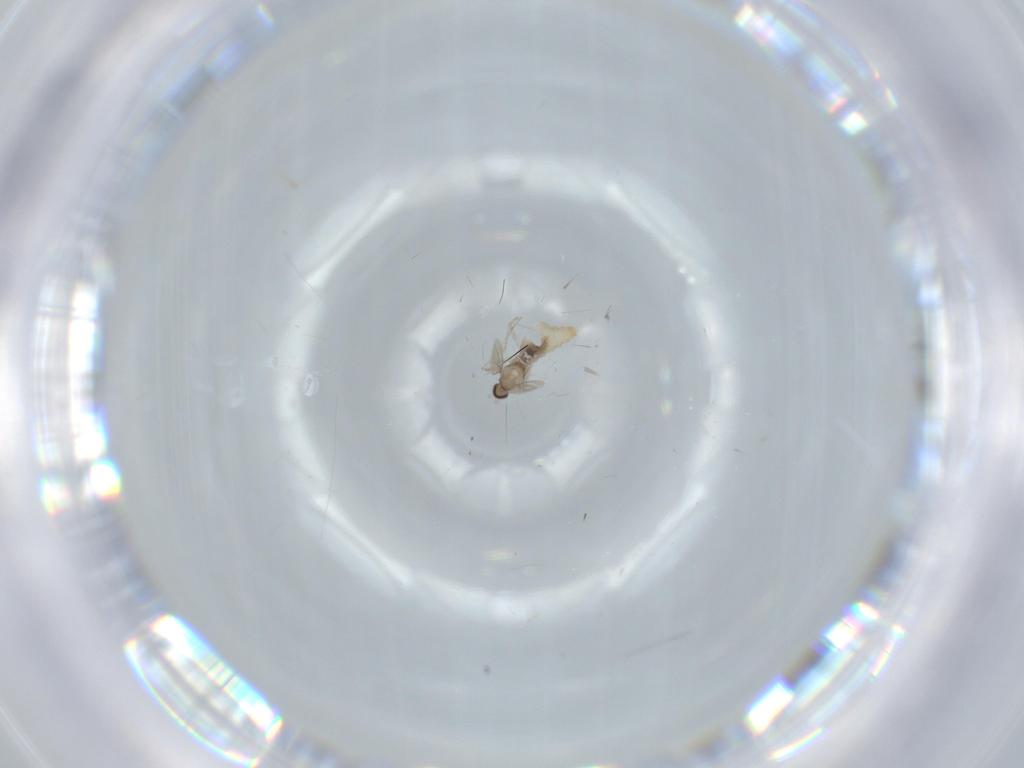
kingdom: Animalia
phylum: Arthropoda
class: Insecta
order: Diptera
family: Cecidomyiidae
